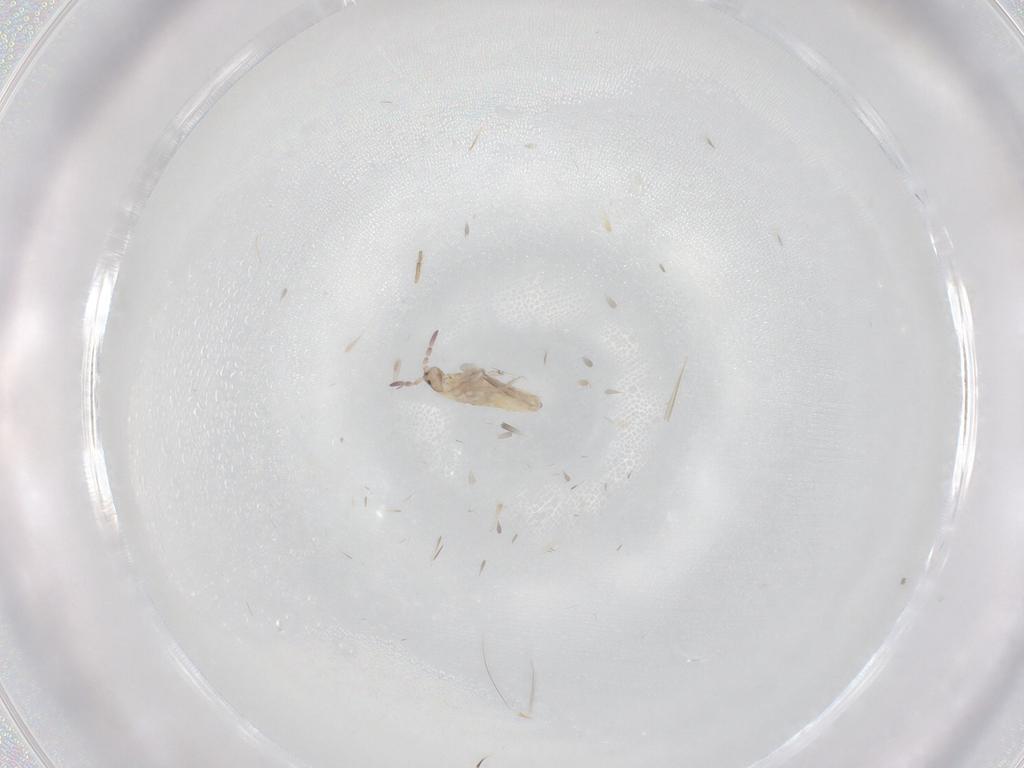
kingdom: Animalia
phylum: Arthropoda
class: Collembola
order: Entomobryomorpha
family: Entomobryidae
